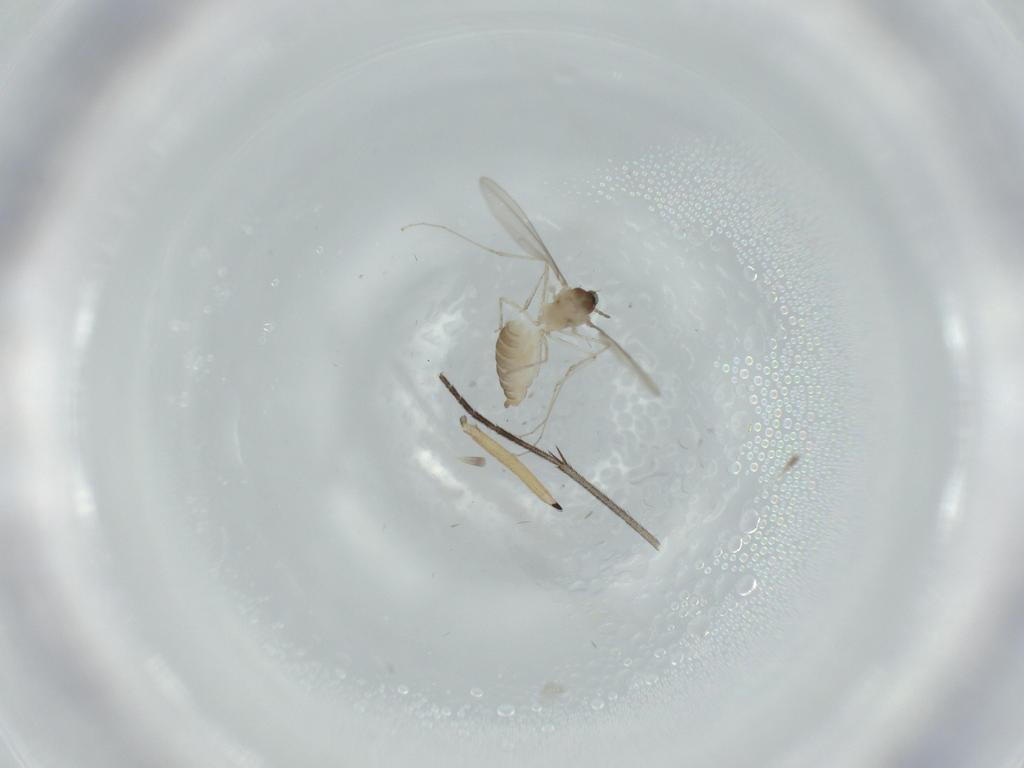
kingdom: Animalia
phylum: Arthropoda
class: Insecta
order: Diptera
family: Cecidomyiidae
